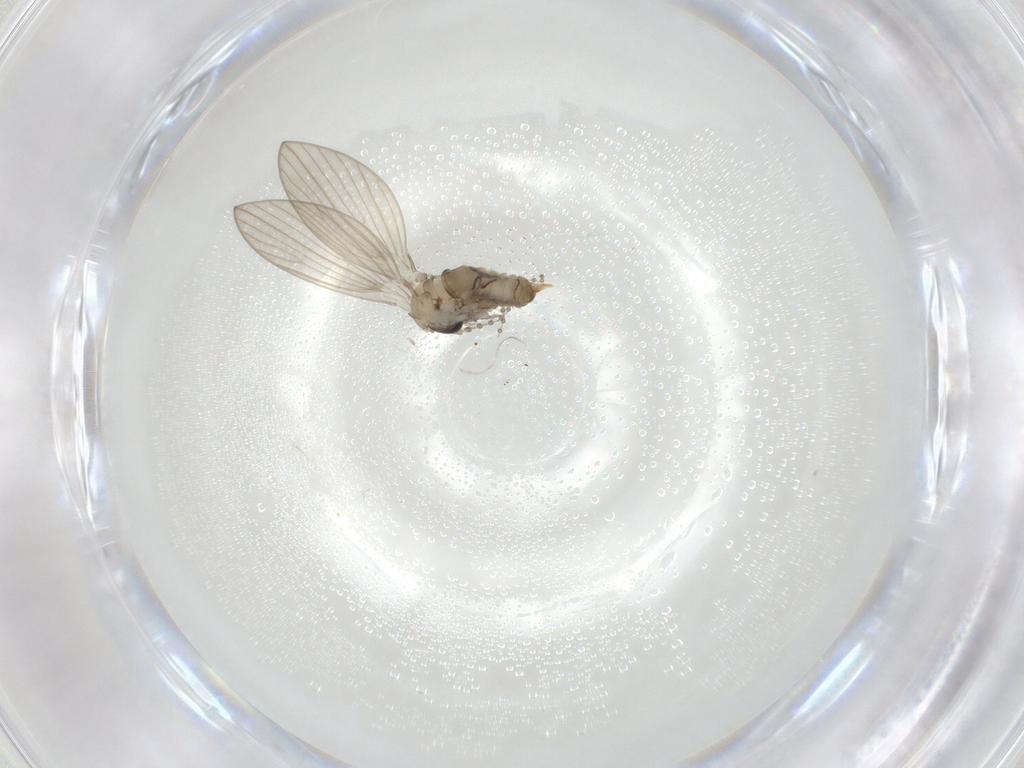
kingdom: Animalia
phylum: Arthropoda
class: Insecta
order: Diptera
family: Psychodidae
